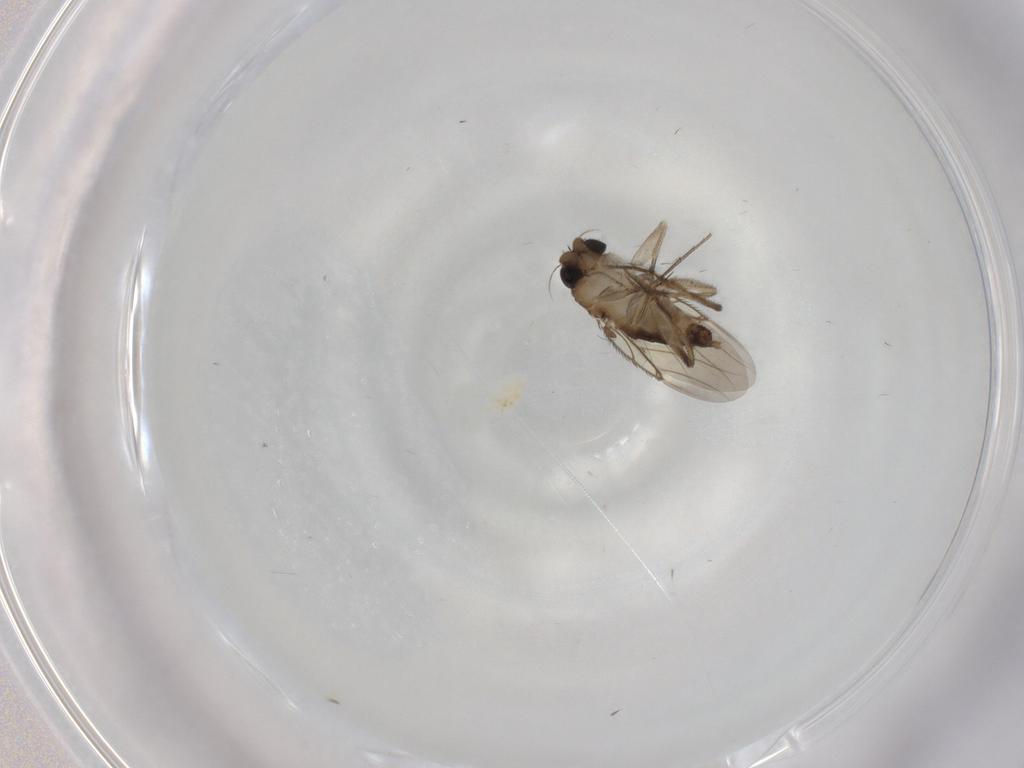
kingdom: Animalia
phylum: Arthropoda
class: Insecta
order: Diptera
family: Phoridae
